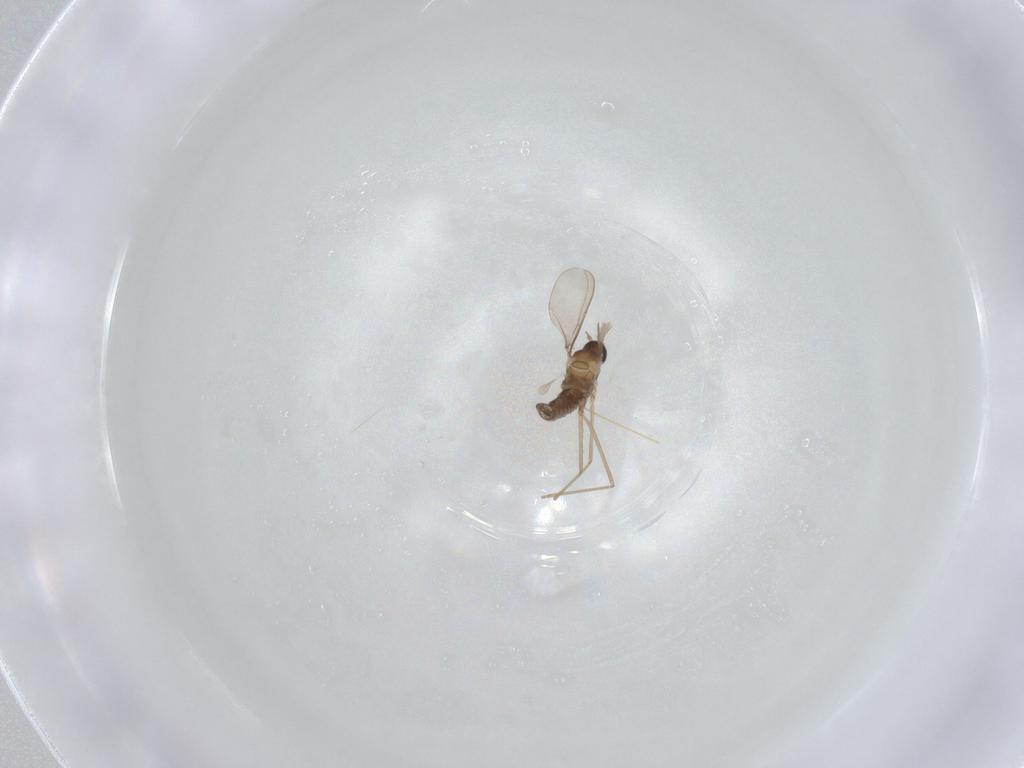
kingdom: Animalia
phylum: Arthropoda
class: Insecta
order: Diptera
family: Cecidomyiidae
